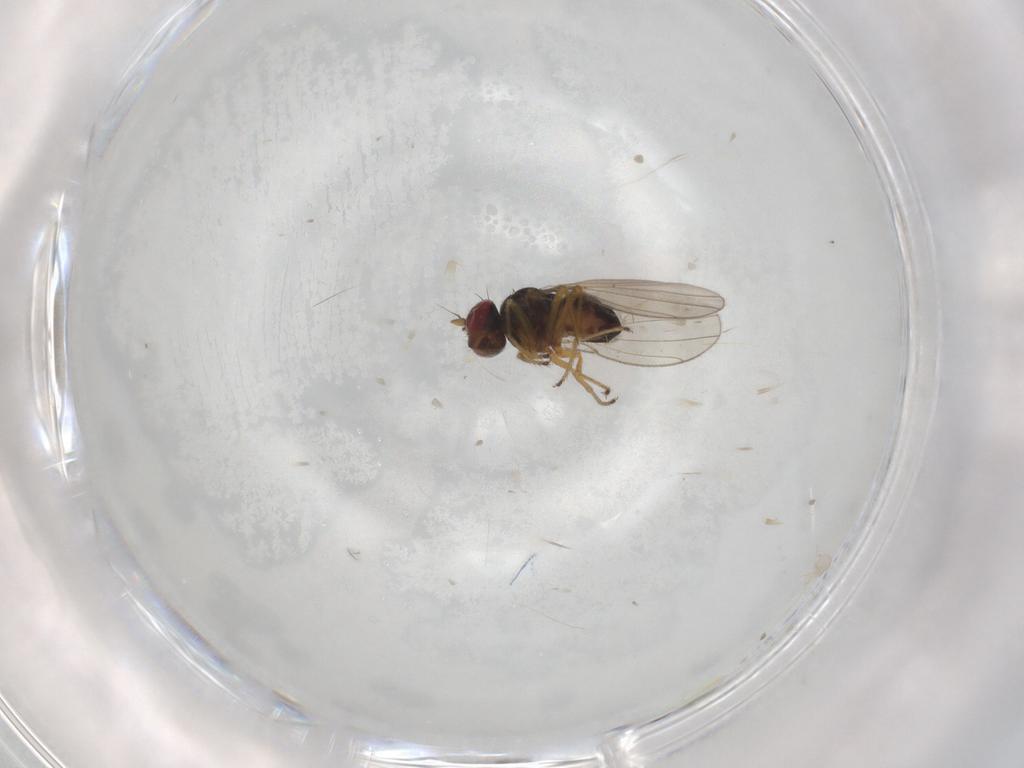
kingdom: Animalia
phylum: Arthropoda
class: Insecta
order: Diptera
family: Ephydridae
